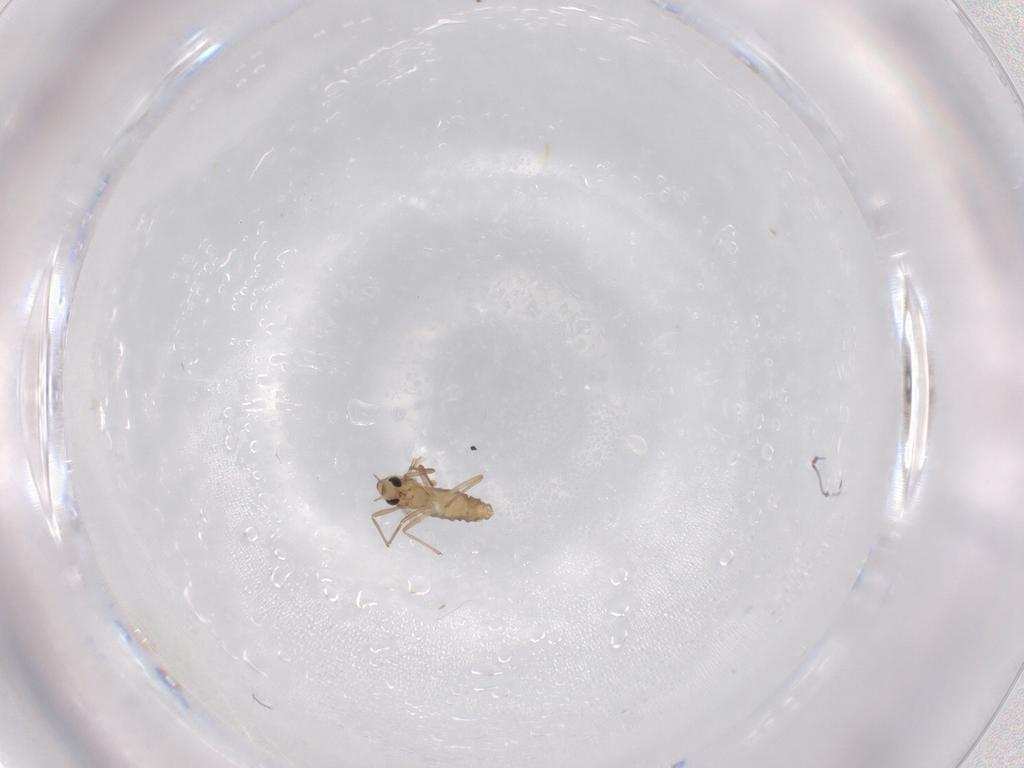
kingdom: Animalia
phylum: Arthropoda
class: Insecta
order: Diptera
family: Chironomidae
